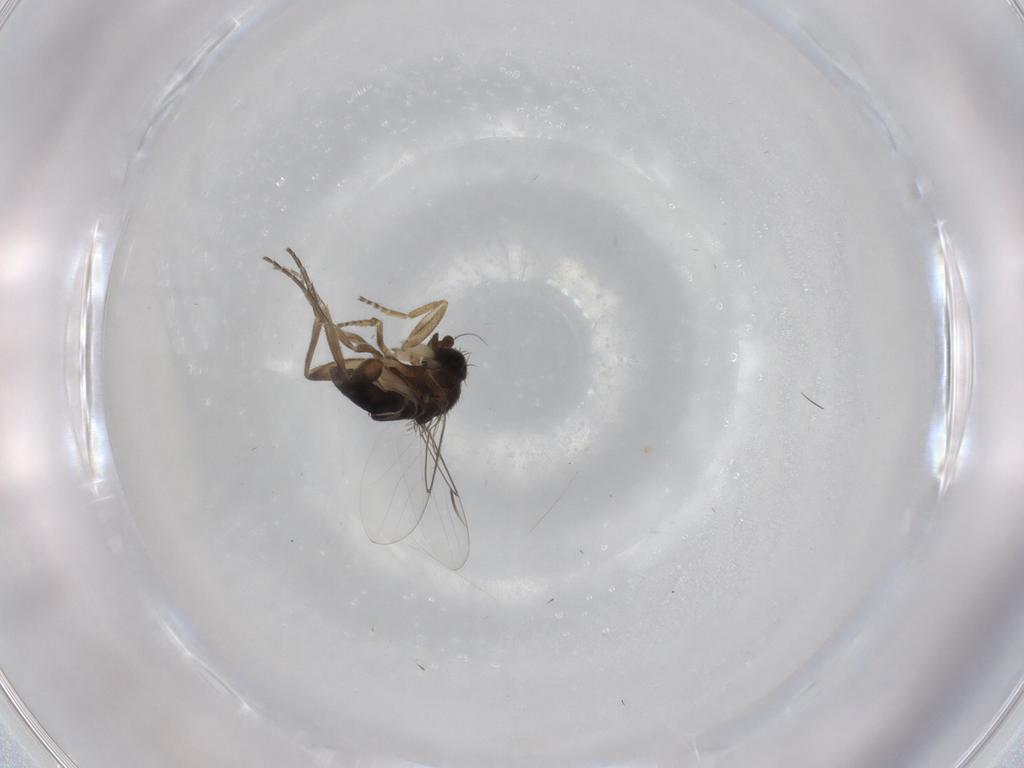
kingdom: Animalia
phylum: Arthropoda
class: Insecta
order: Diptera
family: Phoridae
